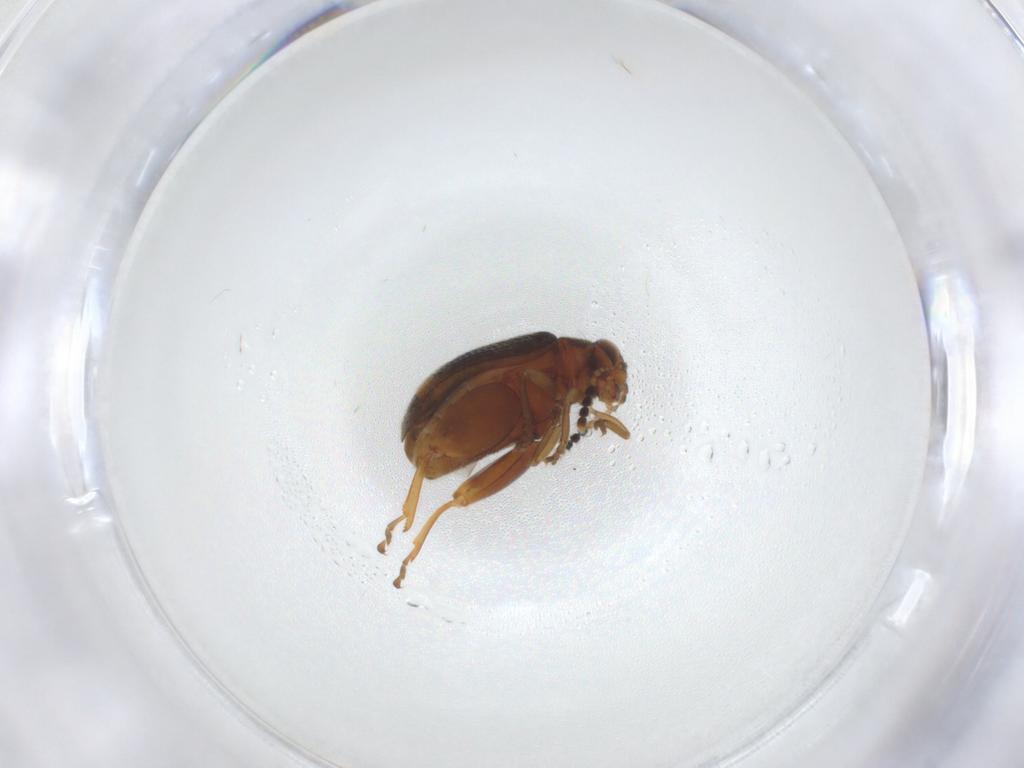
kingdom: Animalia
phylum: Arthropoda
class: Insecta
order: Coleoptera
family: Chrysomelidae
